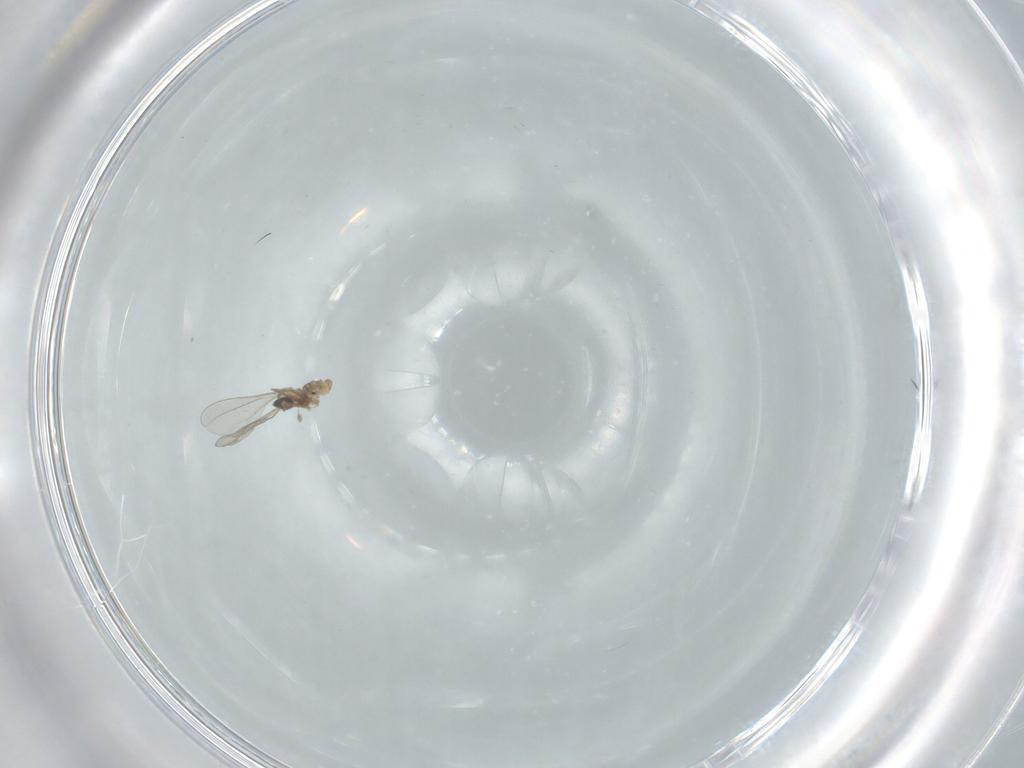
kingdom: Animalia
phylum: Arthropoda
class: Insecta
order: Diptera
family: Cecidomyiidae
